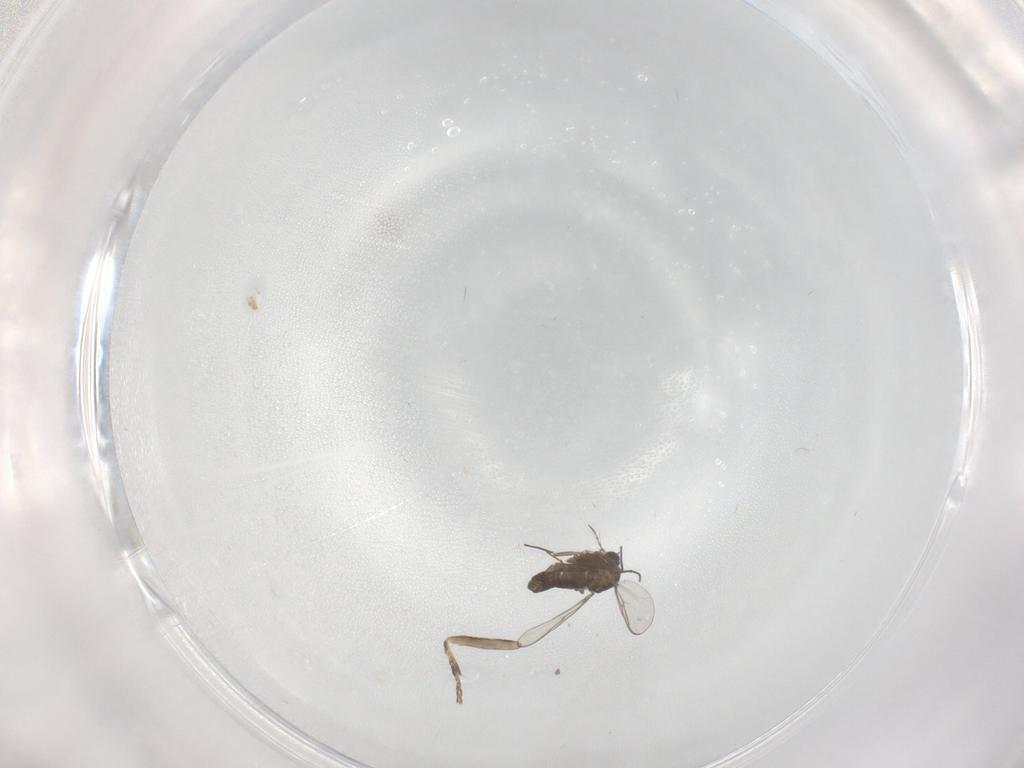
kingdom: Animalia
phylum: Arthropoda
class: Insecta
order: Diptera
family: Chironomidae
